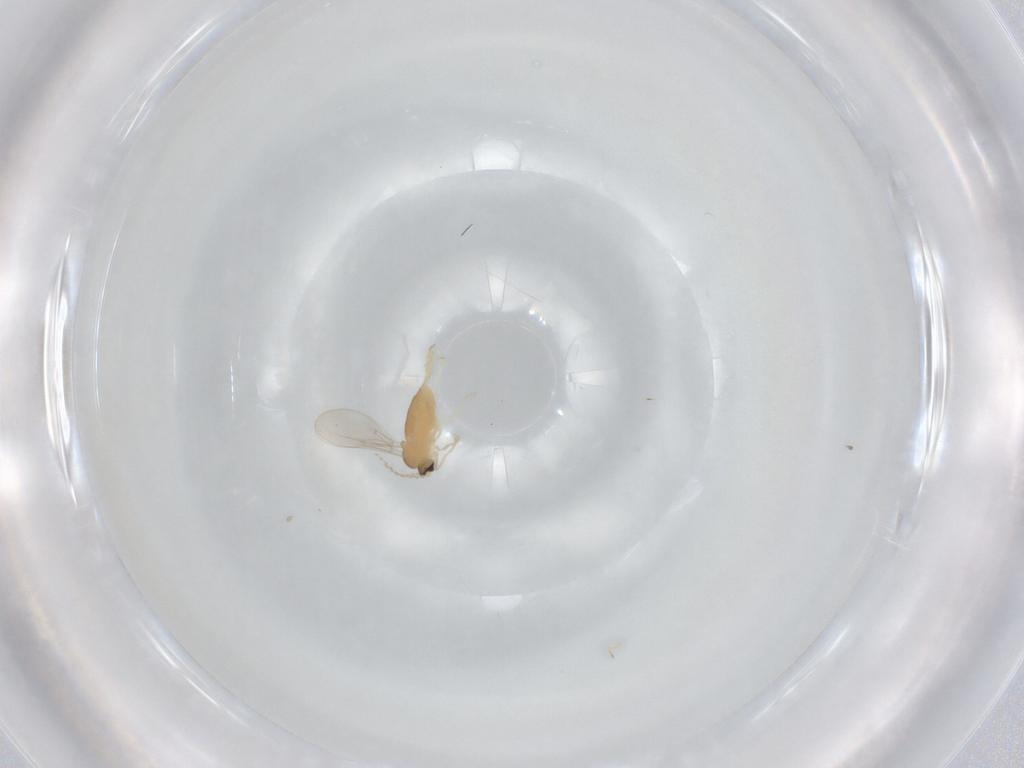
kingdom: Animalia
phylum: Arthropoda
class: Insecta
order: Diptera
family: Cecidomyiidae
